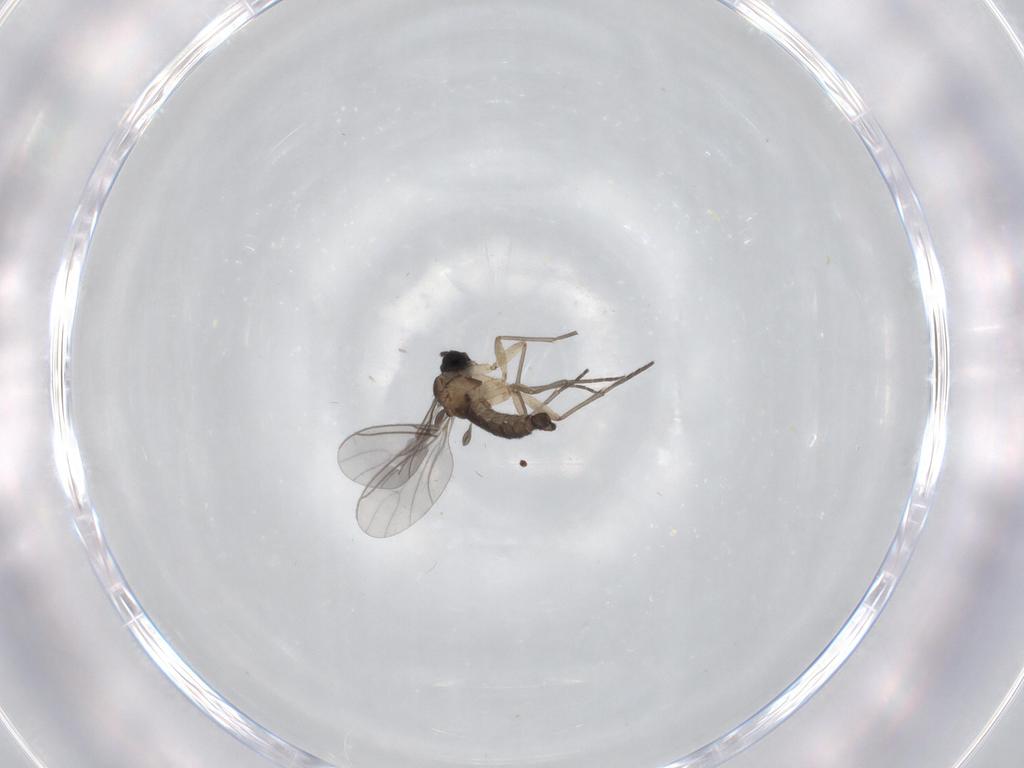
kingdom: Animalia
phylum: Arthropoda
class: Insecta
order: Diptera
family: Sciaridae
